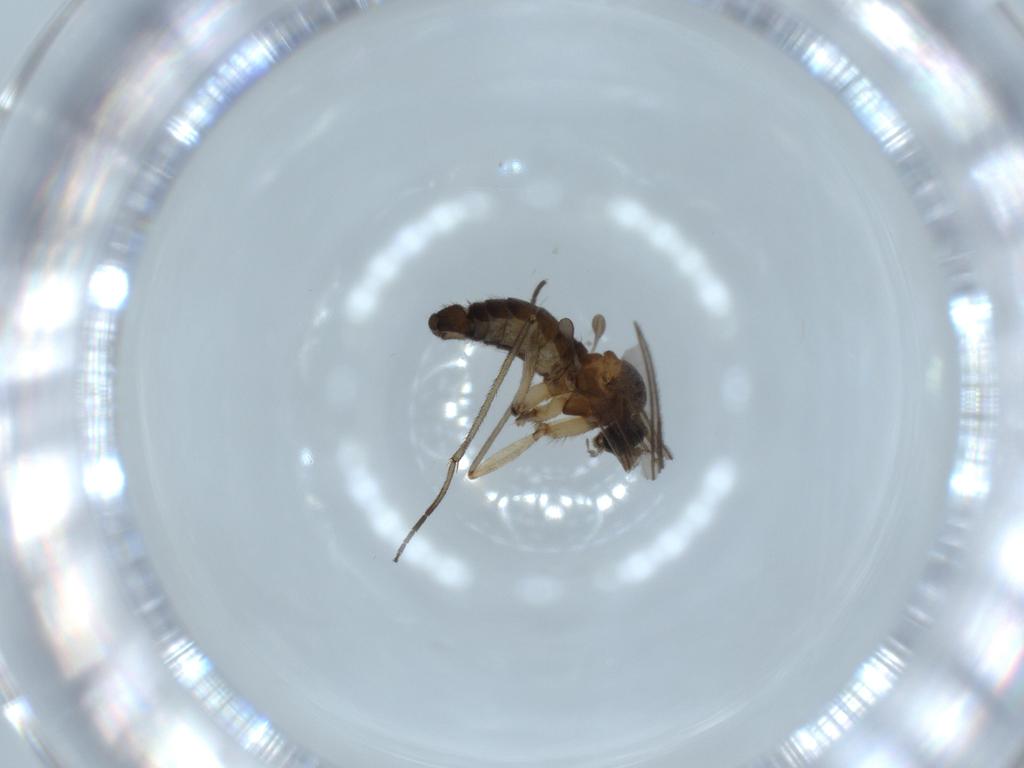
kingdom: Animalia
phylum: Arthropoda
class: Insecta
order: Diptera
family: Sciaridae
